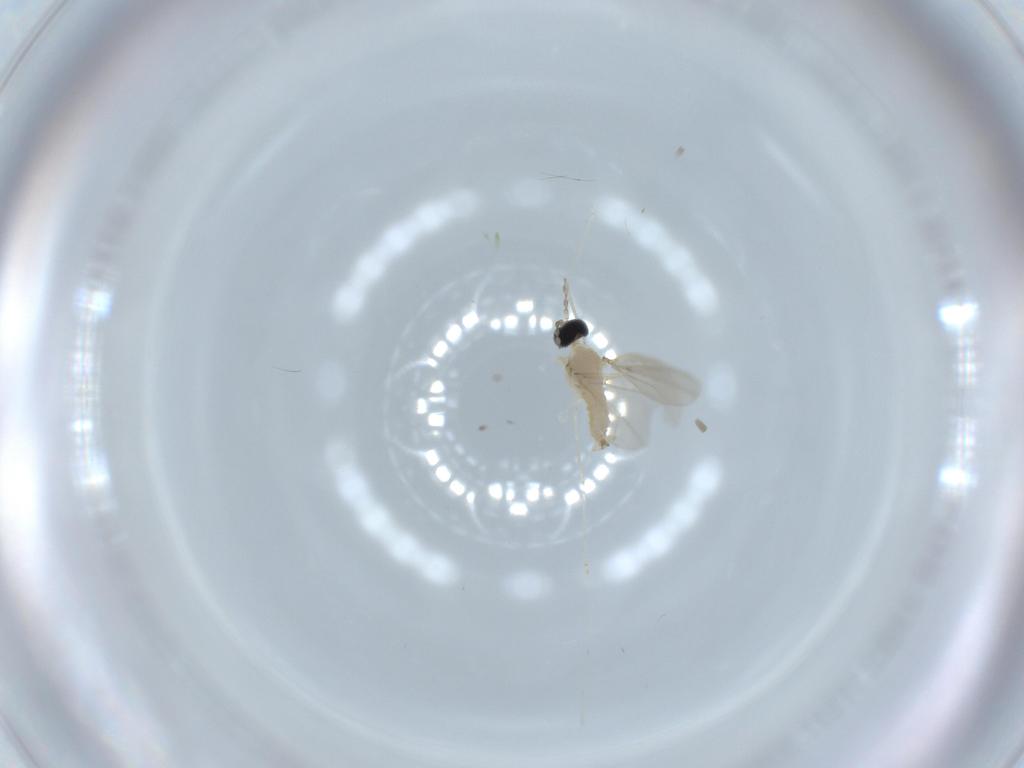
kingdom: Animalia
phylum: Arthropoda
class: Insecta
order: Diptera
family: Cecidomyiidae
